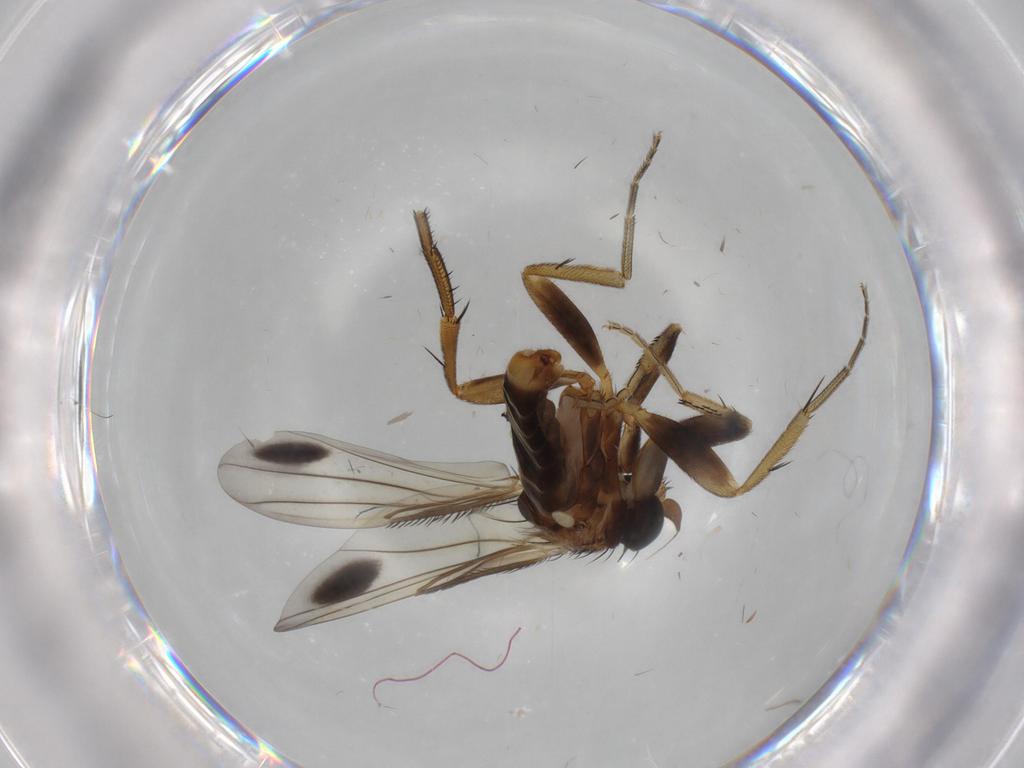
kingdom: Animalia
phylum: Arthropoda
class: Insecta
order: Diptera
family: Phoridae
